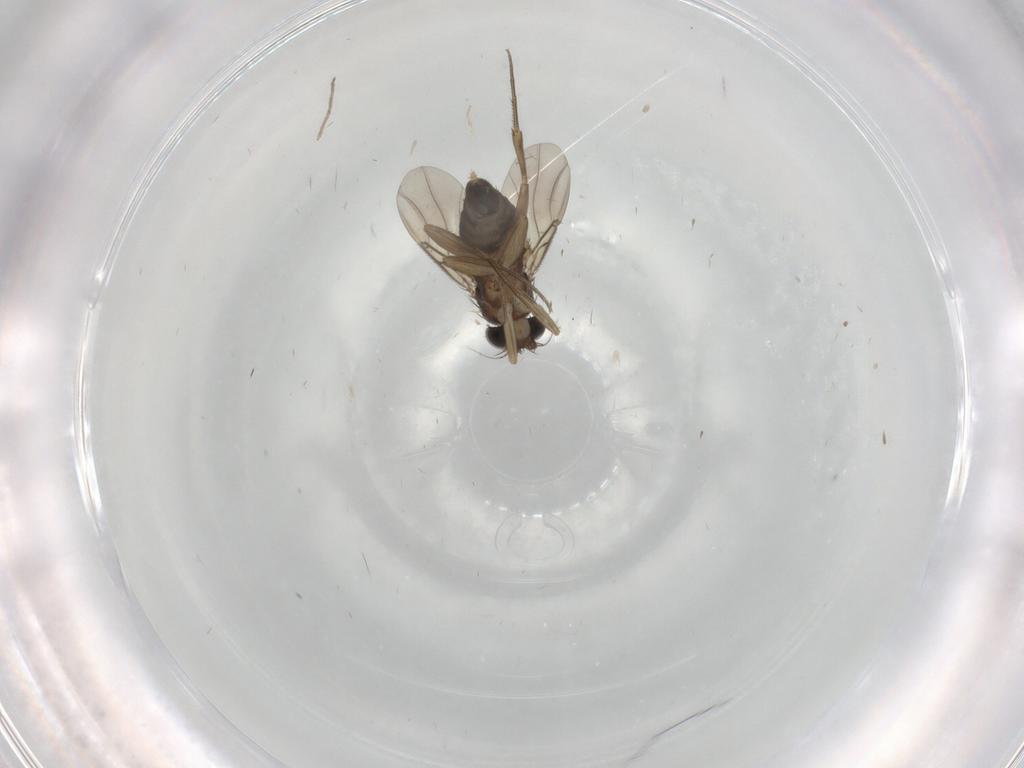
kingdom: Animalia
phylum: Arthropoda
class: Insecta
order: Diptera
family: Phoridae
